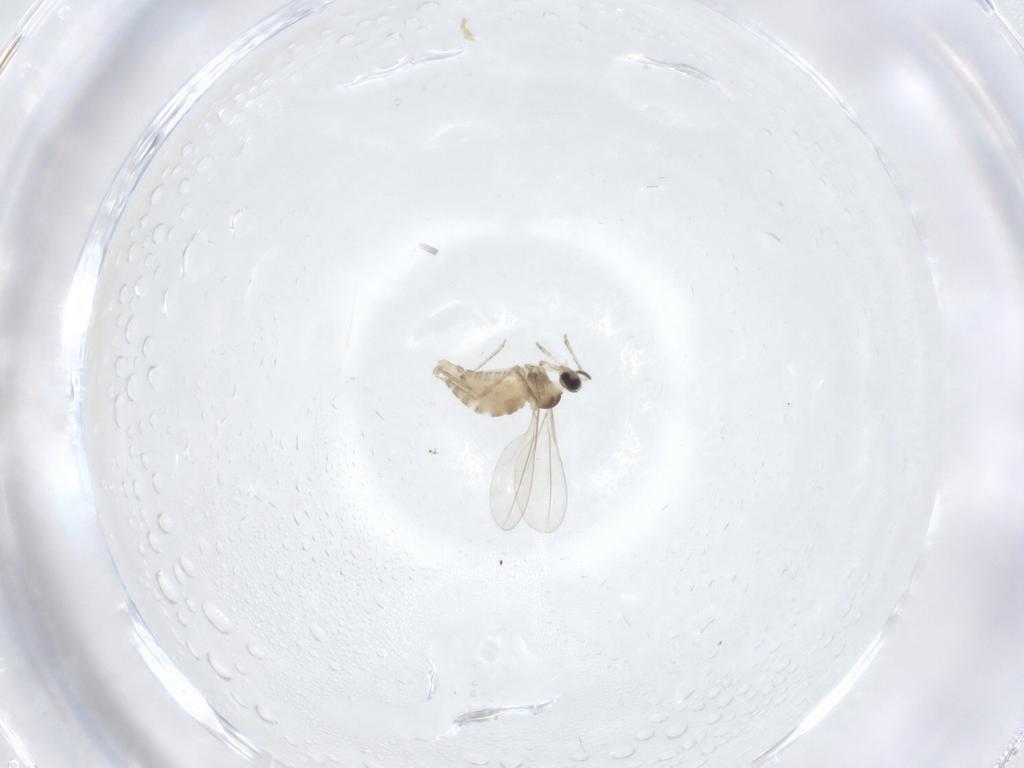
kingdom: Animalia
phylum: Arthropoda
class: Insecta
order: Diptera
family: Cecidomyiidae
